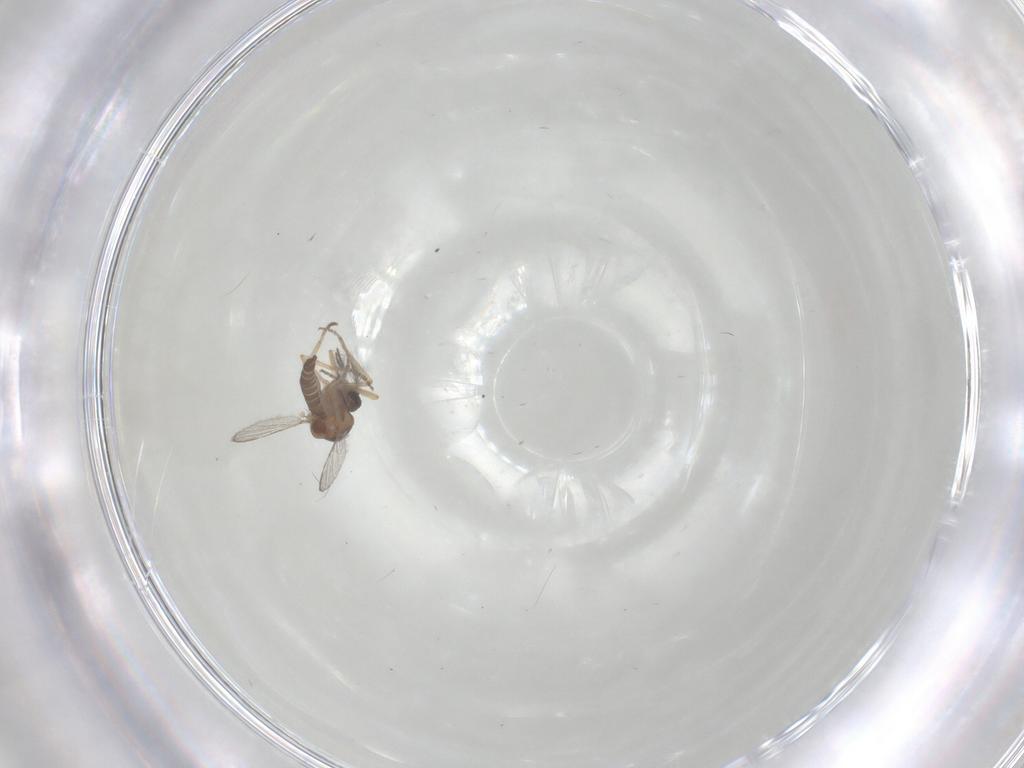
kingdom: Animalia
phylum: Arthropoda
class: Insecta
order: Diptera
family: Ceratopogonidae
